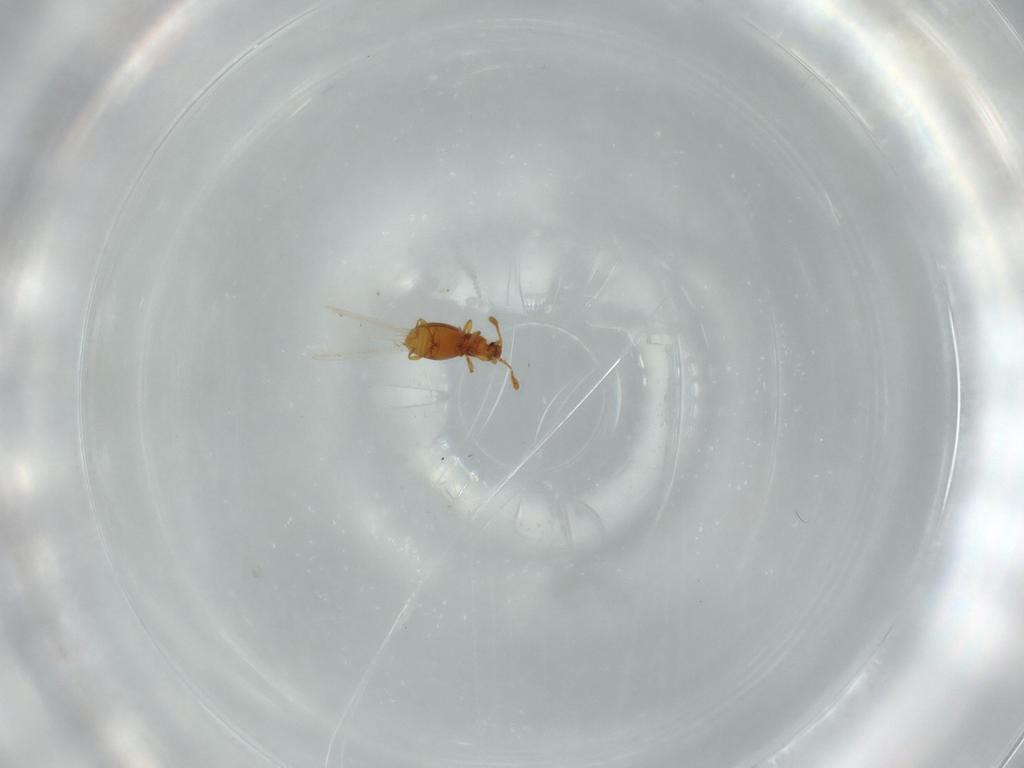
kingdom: Animalia
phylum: Arthropoda
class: Insecta
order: Coleoptera
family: Staphylinidae
